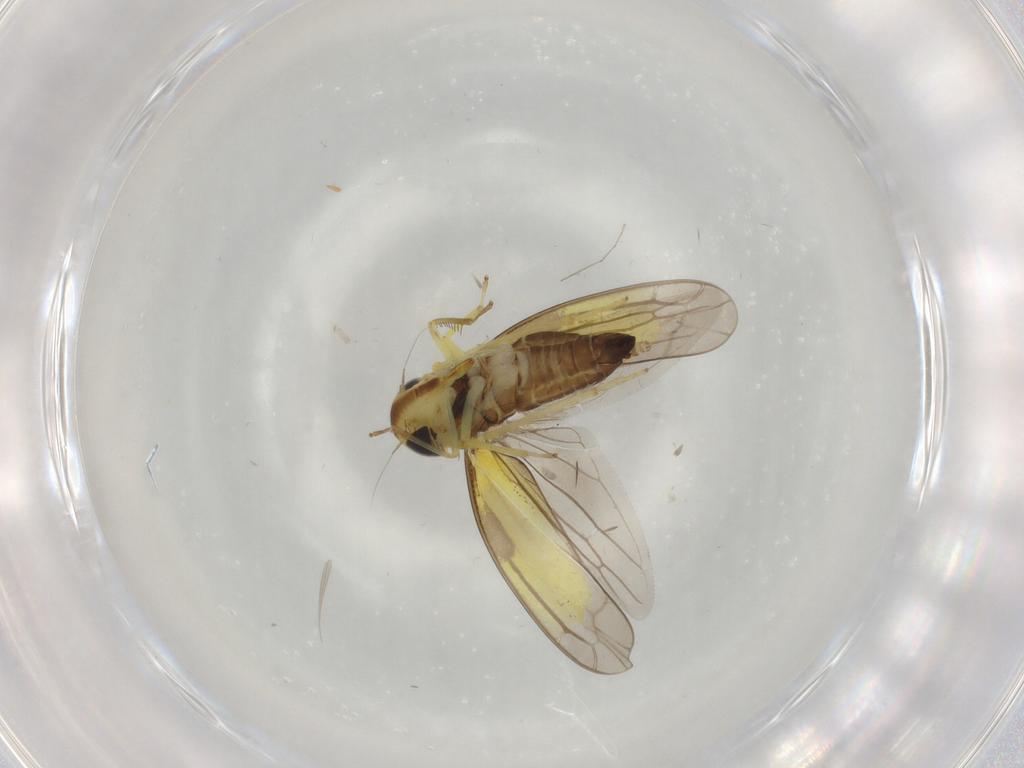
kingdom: Animalia
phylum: Arthropoda
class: Insecta
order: Hemiptera
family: Cicadellidae
